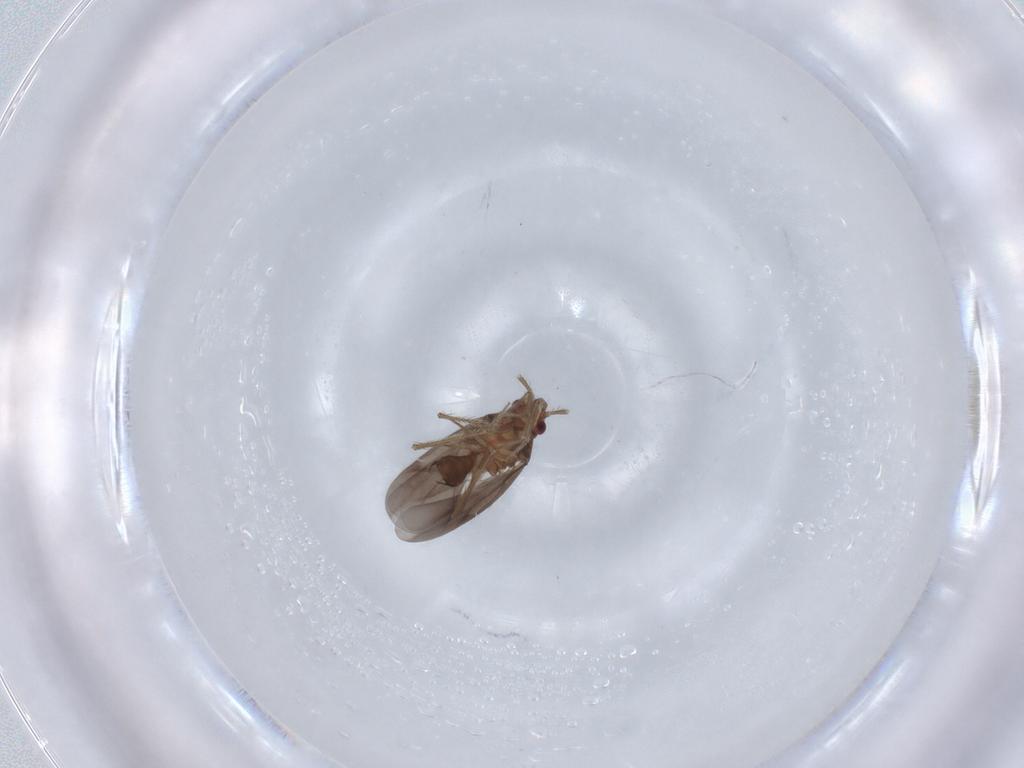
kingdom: Animalia
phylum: Arthropoda
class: Insecta
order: Hemiptera
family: Ceratocombidae
